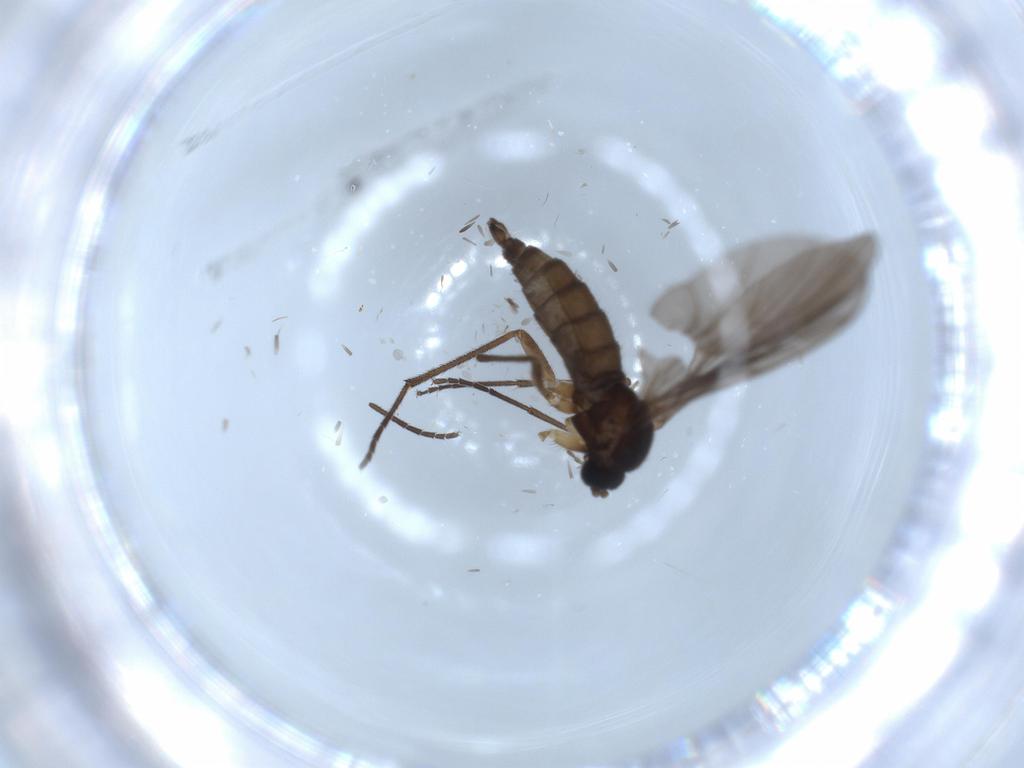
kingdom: Animalia
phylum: Arthropoda
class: Insecta
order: Diptera
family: Sciaridae
